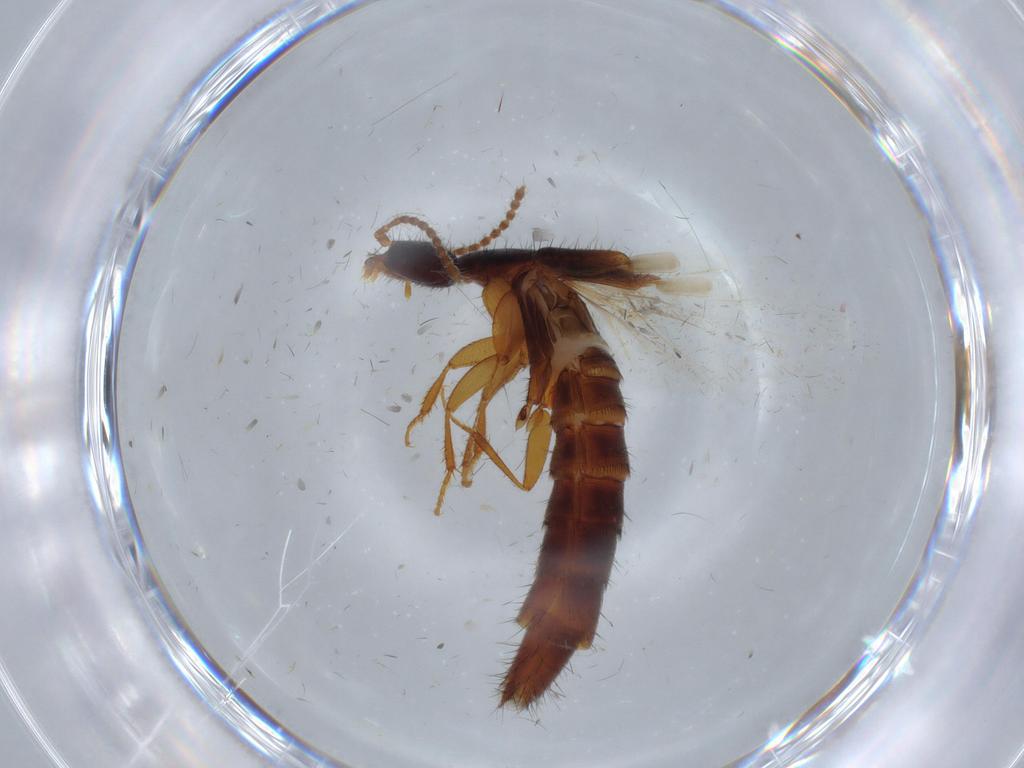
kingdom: Animalia
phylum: Arthropoda
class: Insecta
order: Coleoptera
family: Staphylinidae
